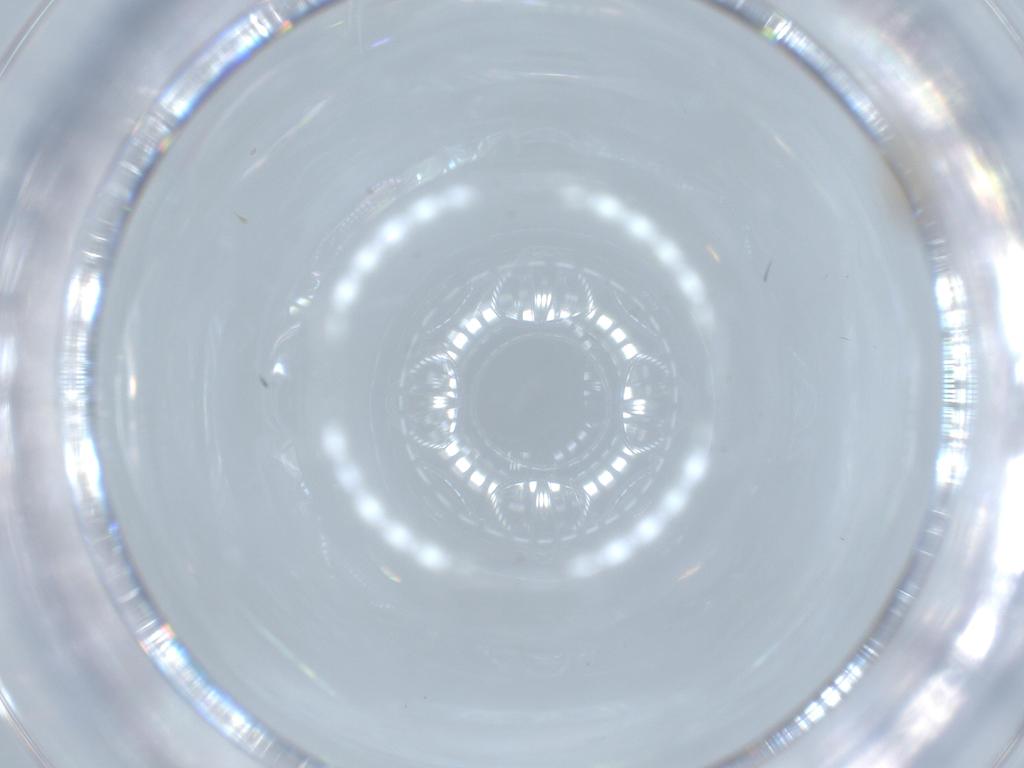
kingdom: Animalia
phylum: Arthropoda
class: Insecta
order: Diptera
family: Cecidomyiidae
